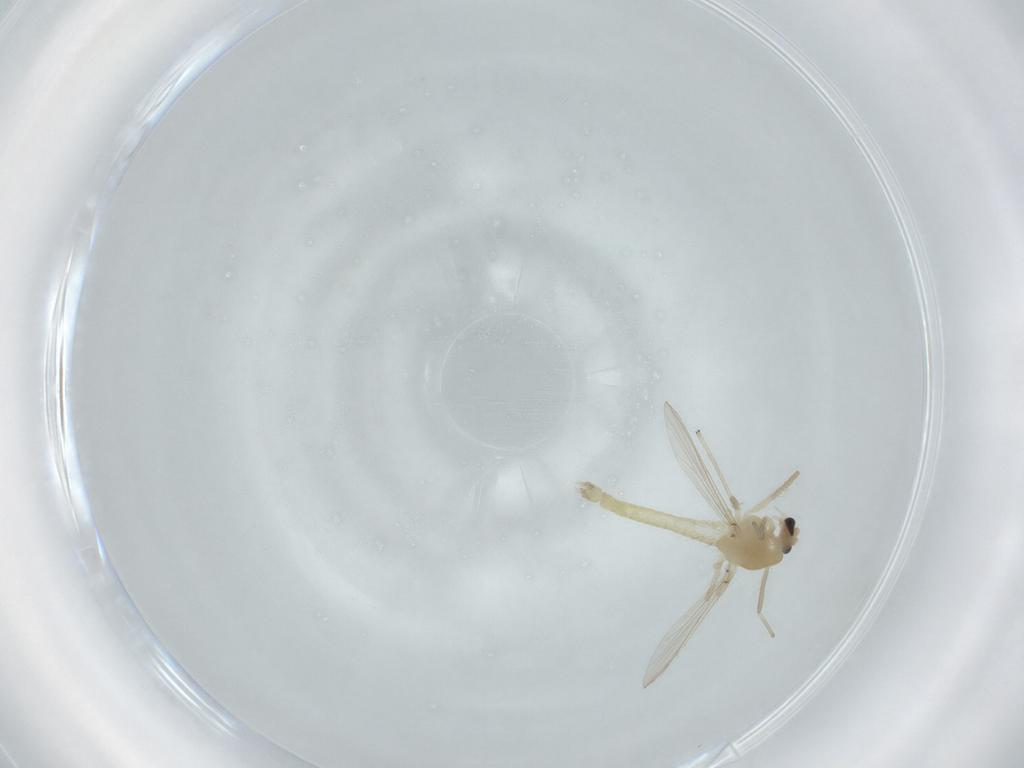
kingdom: Animalia
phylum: Arthropoda
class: Insecta
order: Diptera
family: Chironomidae
